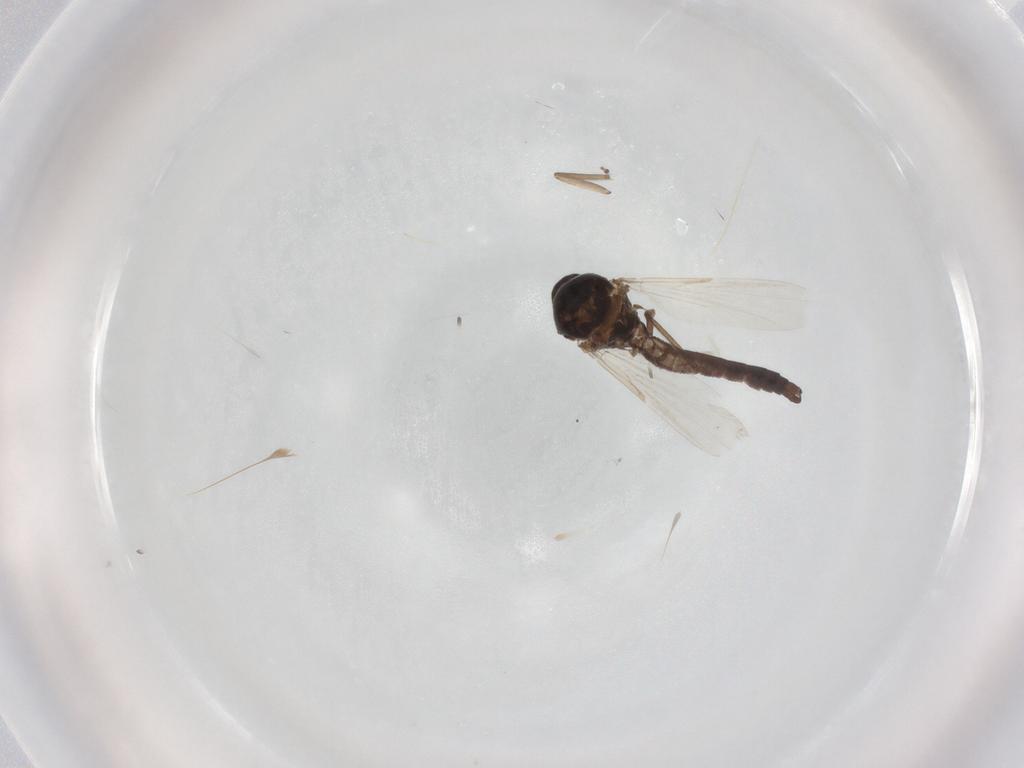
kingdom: Animalia
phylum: Arthropoda
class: Insecta
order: Diptera
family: Ceratopogonidae
